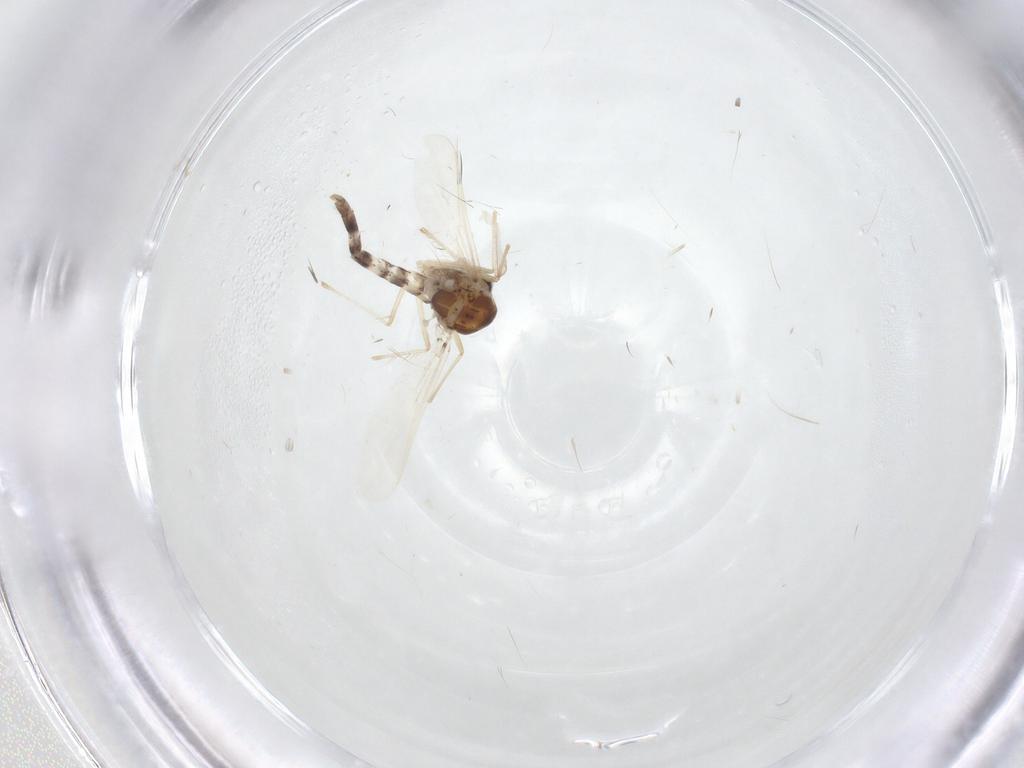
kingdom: Animalia
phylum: Arthropoda
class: Insecta
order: Diptera
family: Chironomidae
